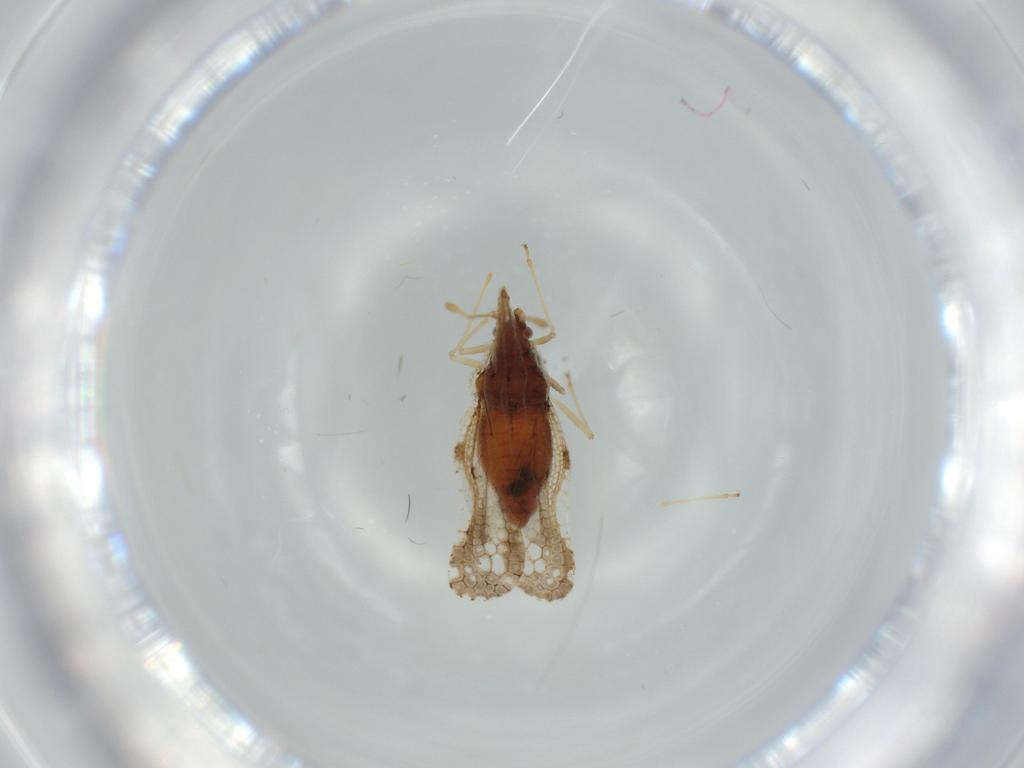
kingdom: Animalia
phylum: Arthropoda
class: Insecta
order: Hemiptera
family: Tingidae
